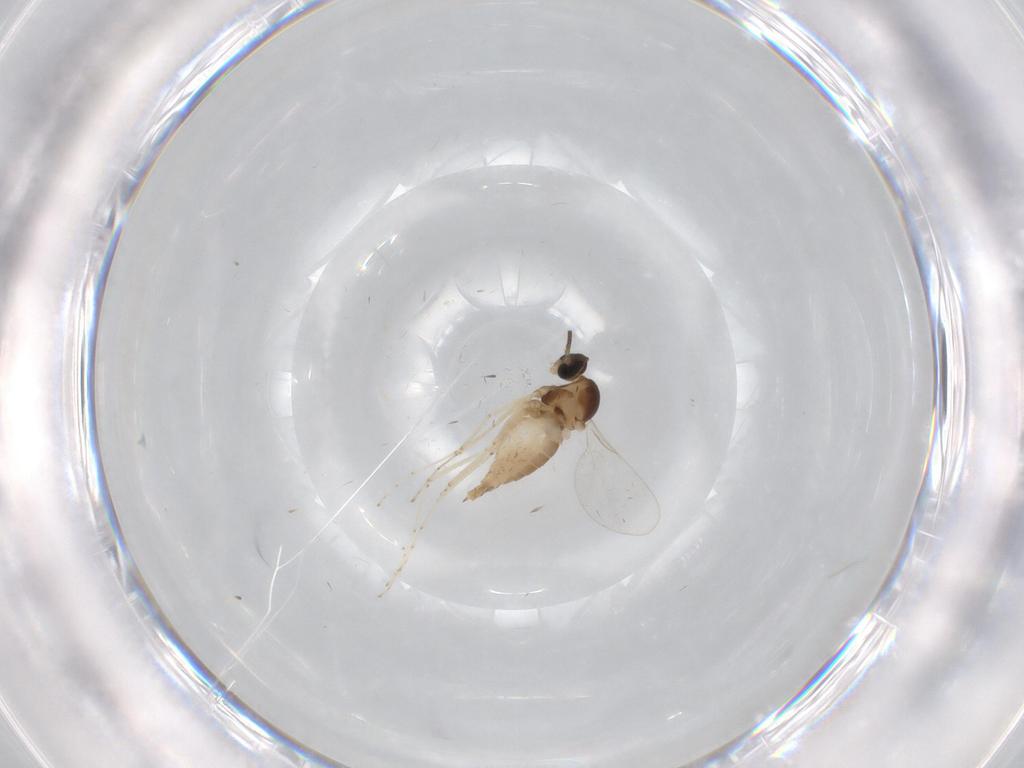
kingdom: Animalia
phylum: Arthropoda
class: Insecta
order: Diptera
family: Cecidomyiidae
